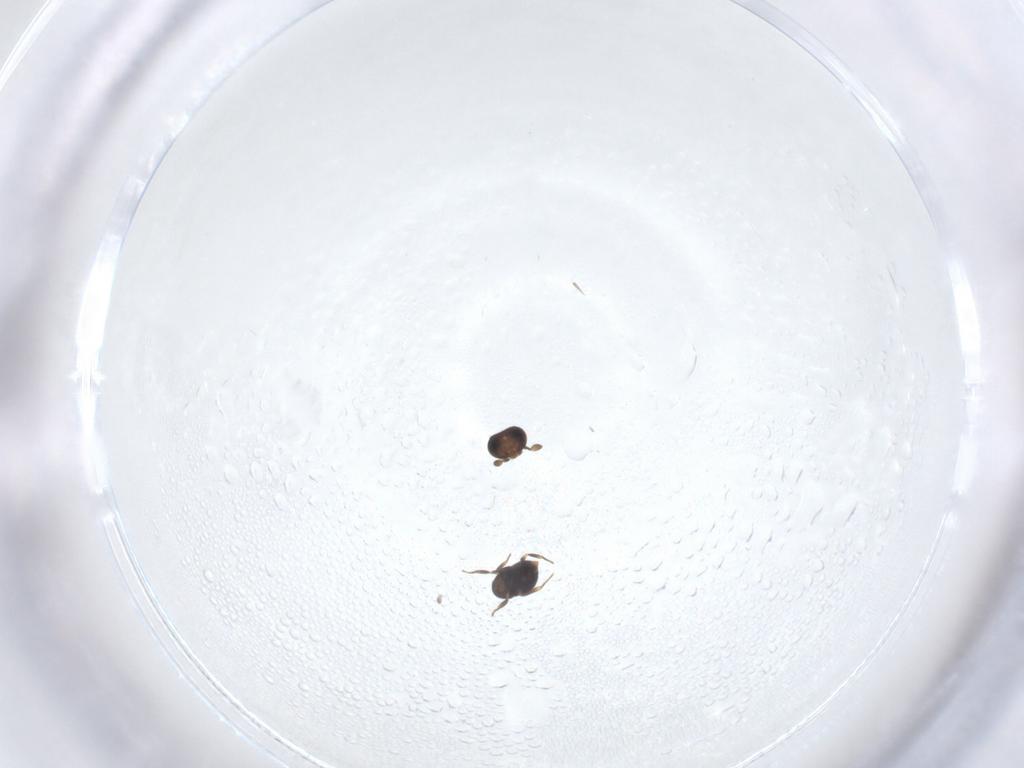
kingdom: Animalia
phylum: Arthropoda
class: Insecta
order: Hymenoptera
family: Scelionidae
